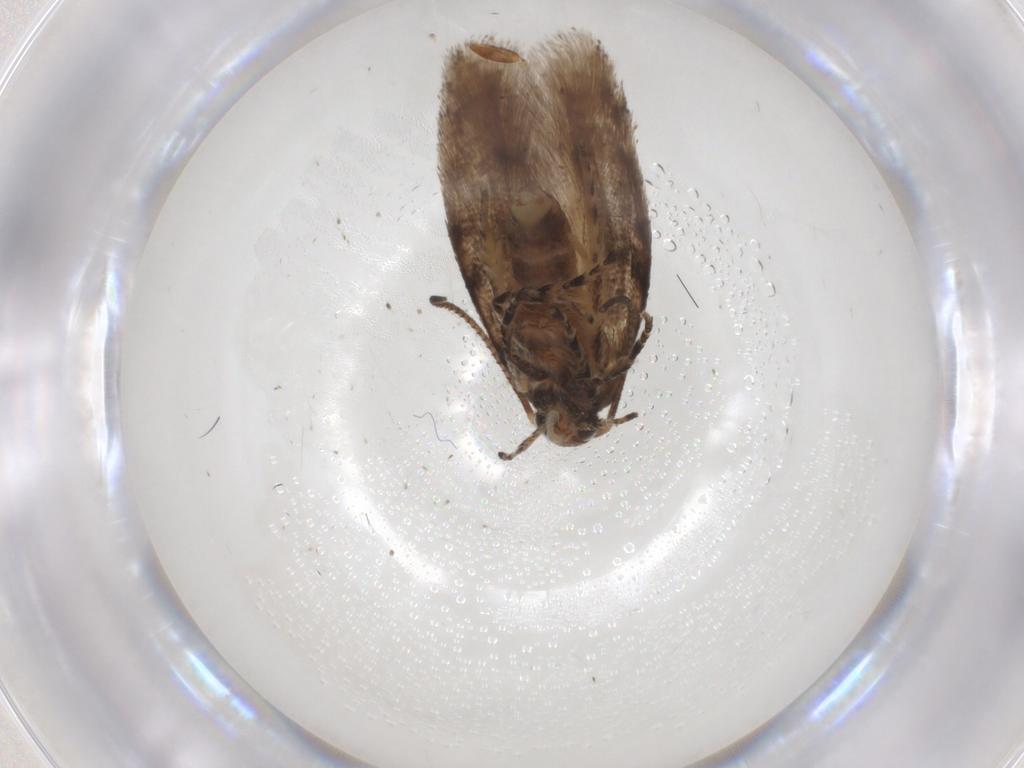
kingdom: Animalia
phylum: Arthropoda
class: Insecta
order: Lepidoptera
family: Gelechiidae
